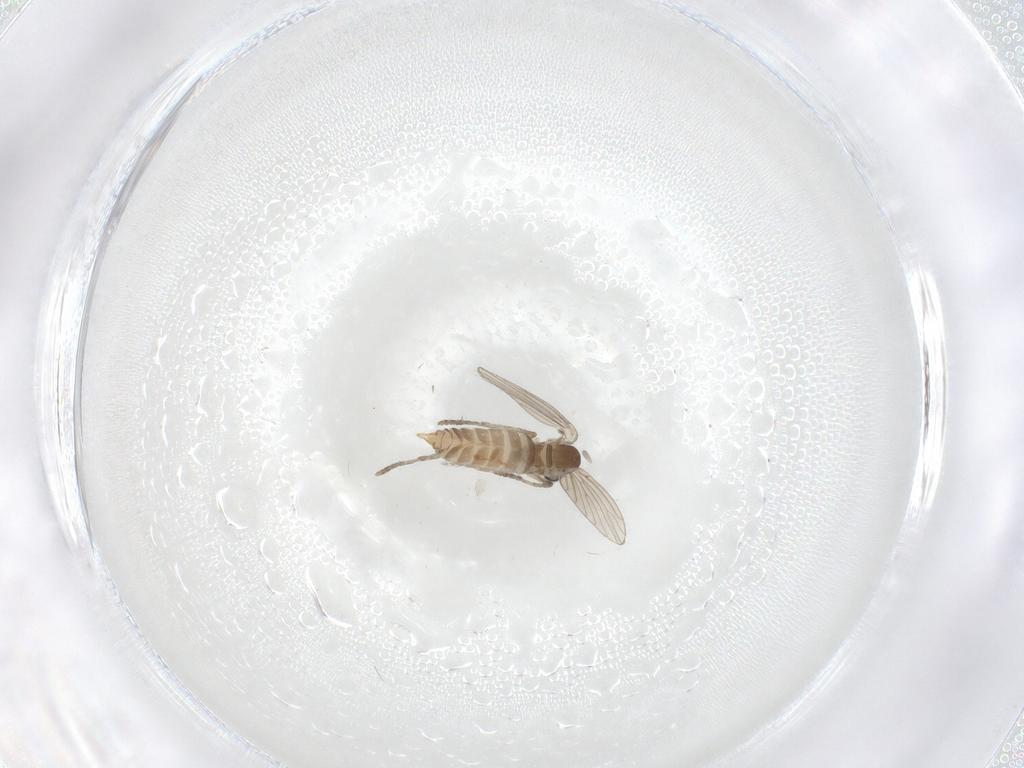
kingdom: Animalia
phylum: Arthropoda
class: Insecta
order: Diptera
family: Psychodidae
